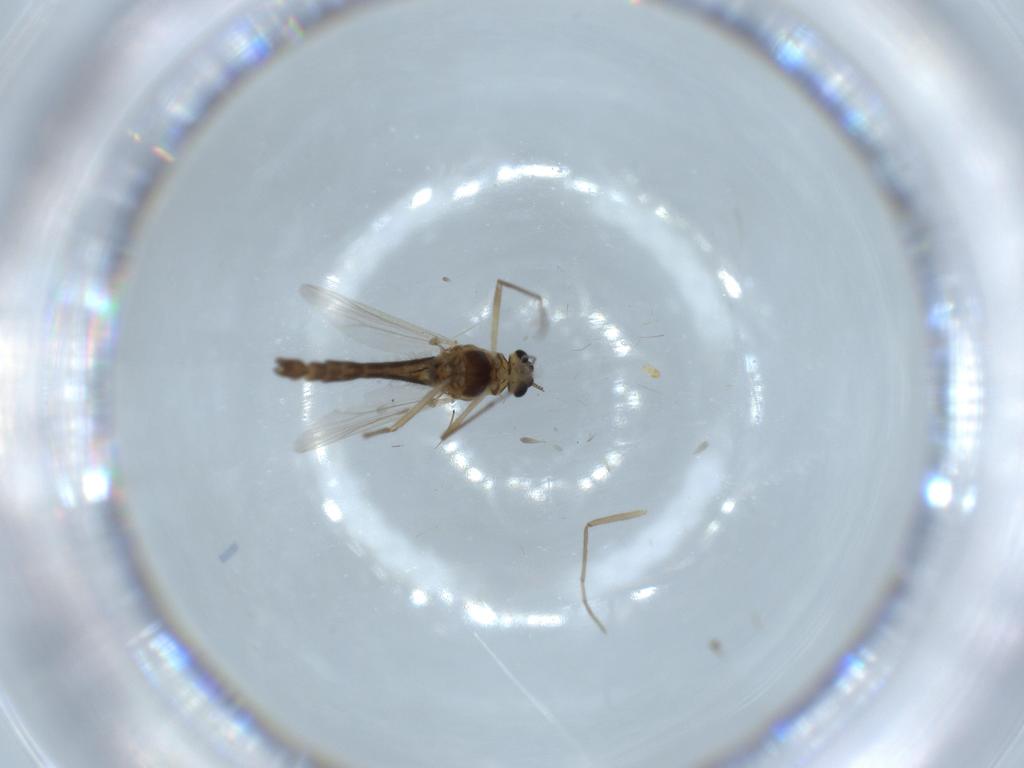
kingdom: Animalia
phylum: Arthropoda
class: Insecta
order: Diptera
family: Chironomidae
